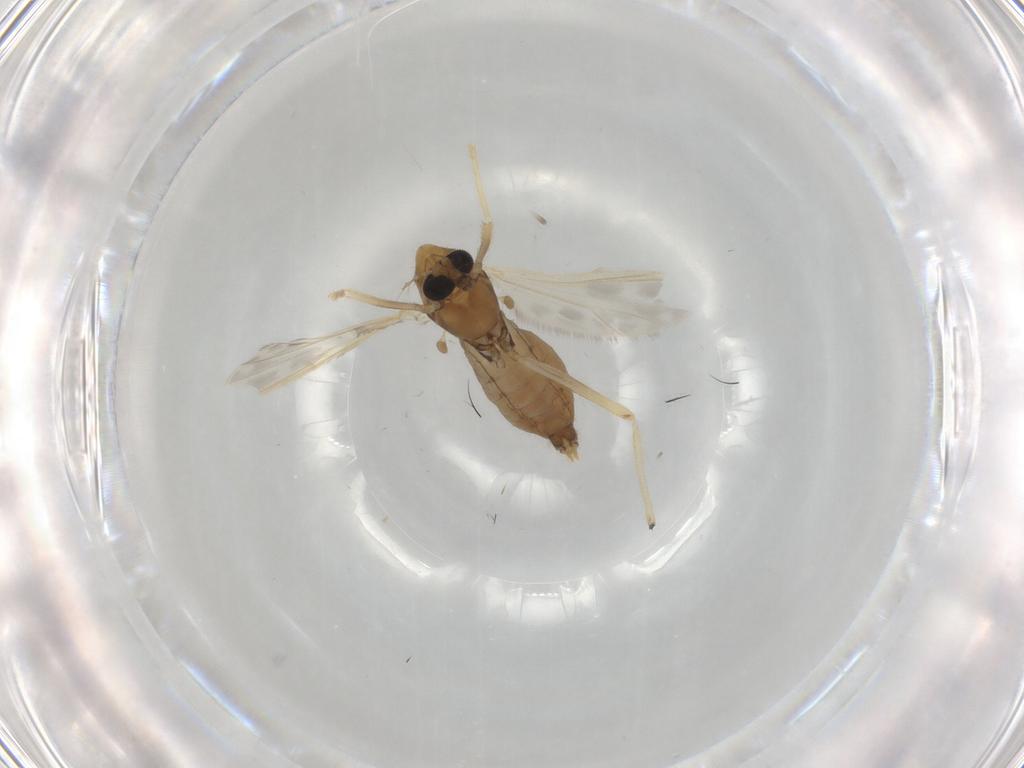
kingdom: Animalia
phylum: Arthropoda
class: Insecta
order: Diptera
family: Chironomidae
